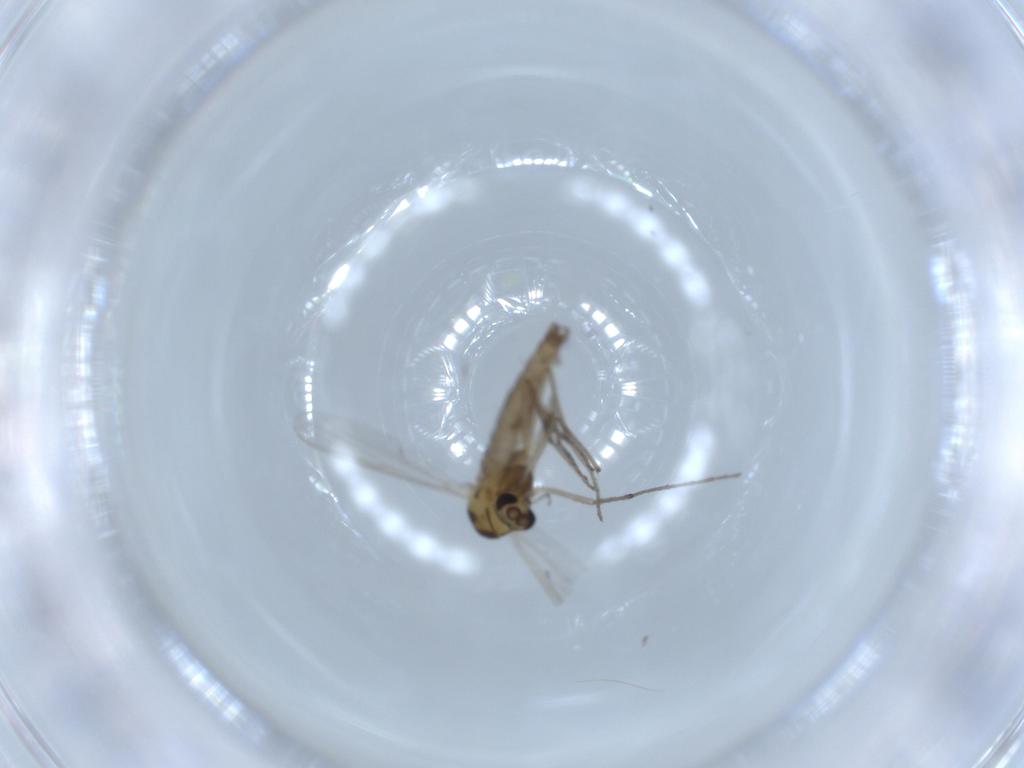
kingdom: Animalia
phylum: Arthropoda
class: Insecta
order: Diptera
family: Chironomidae
